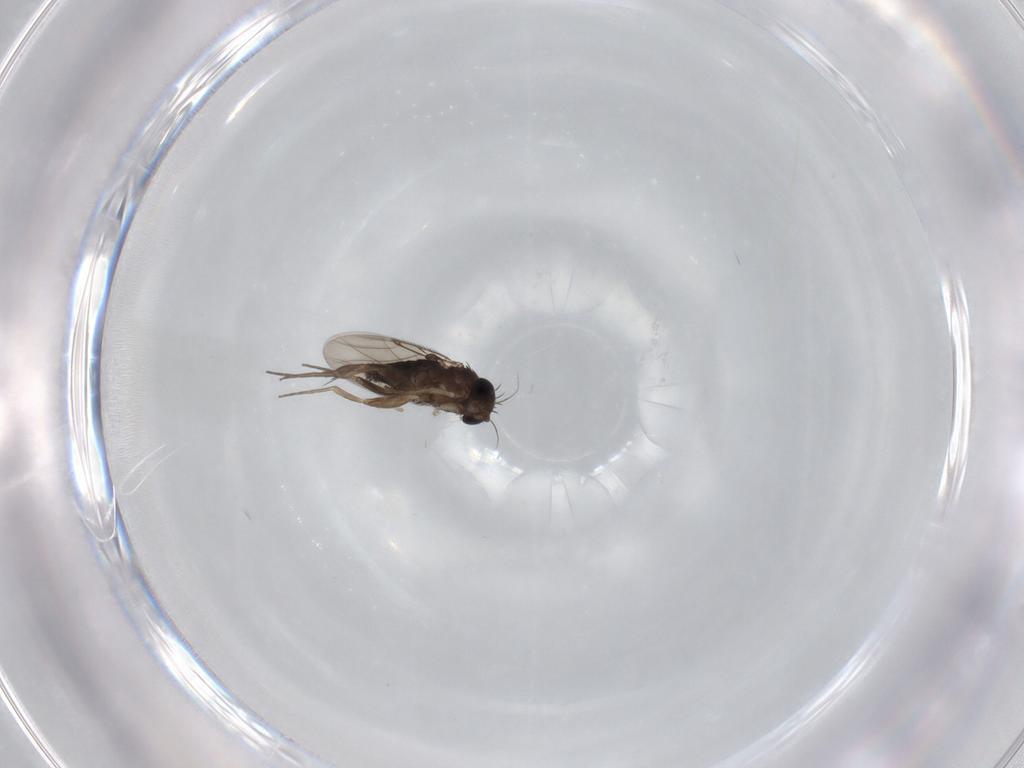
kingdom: Animalia
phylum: Arthropoda
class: Insecta
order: Diptera
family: Phoridae
